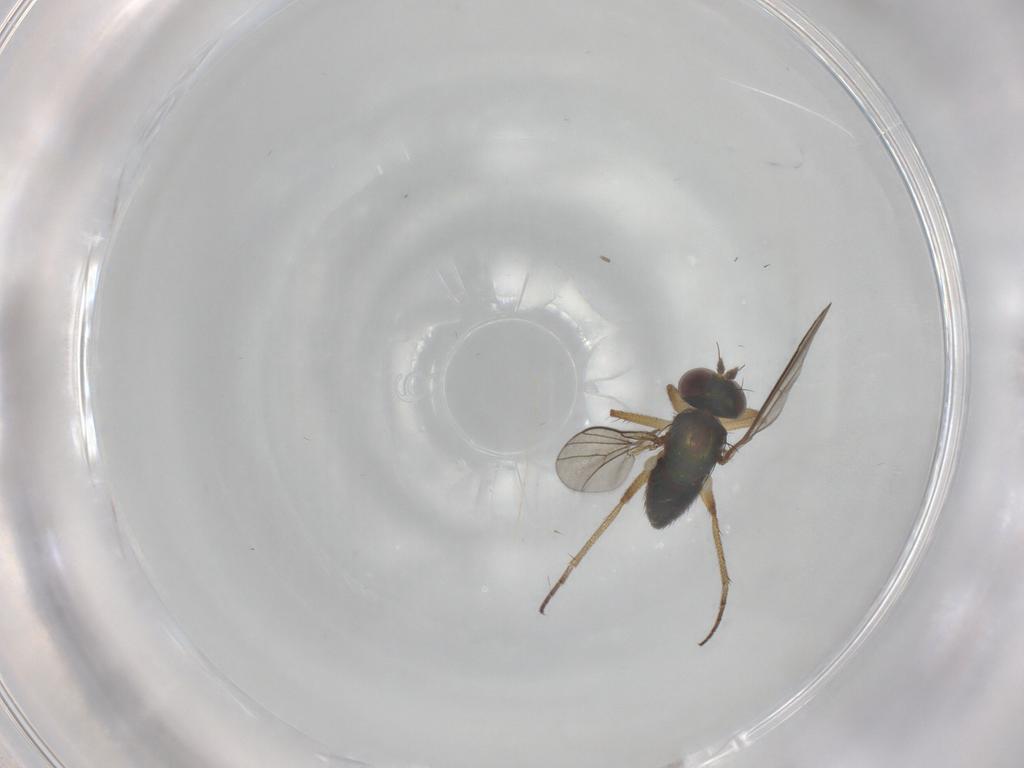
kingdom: Animalia
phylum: Arthropoda
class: Insecta
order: Diptera
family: Dolichopodidae
